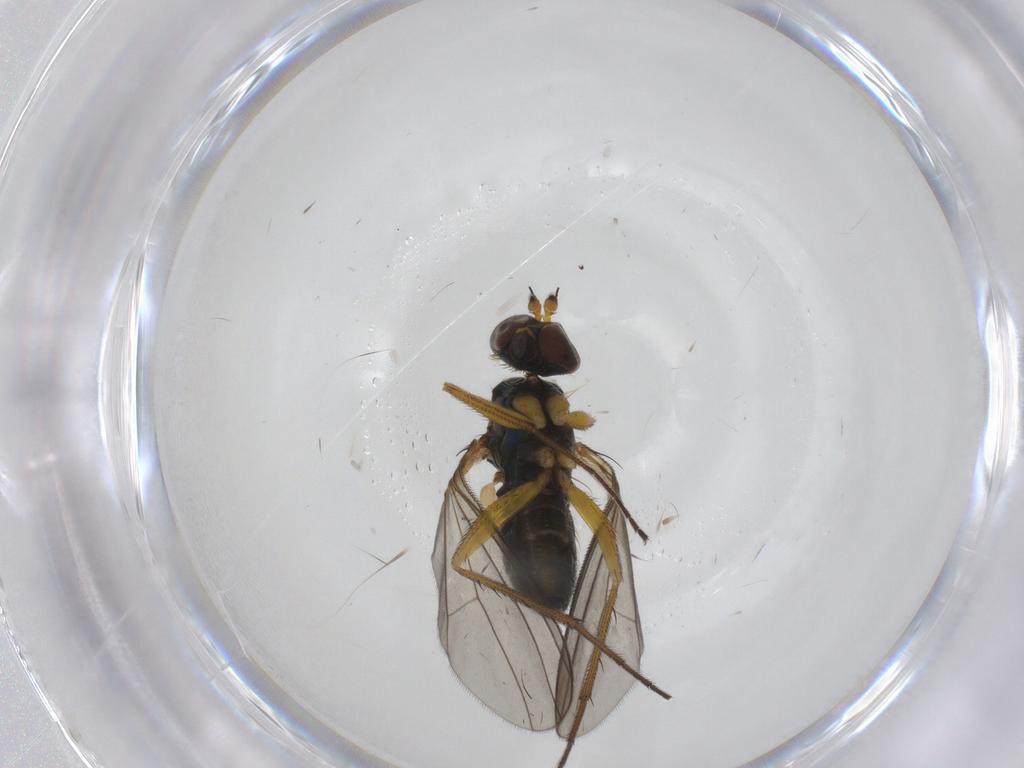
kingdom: Animalia
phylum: Arthropoda
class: Insecta
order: Diptera
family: Dolichopodidae
